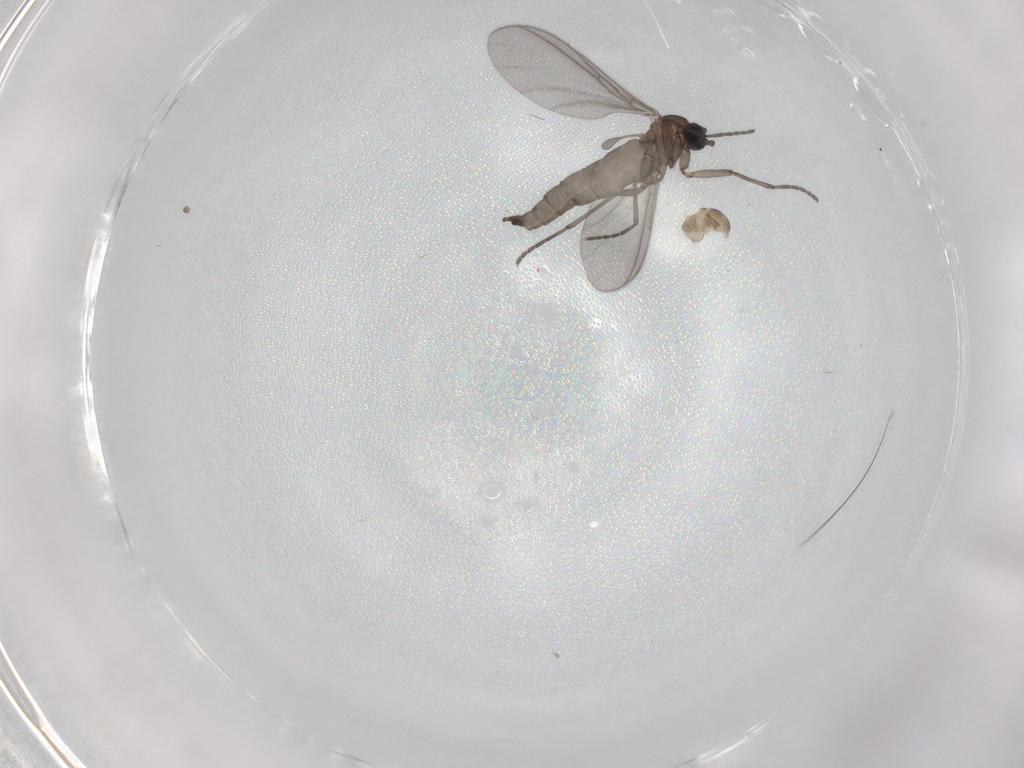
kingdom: Animalia
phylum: Arthropoda
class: Insecta
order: Diptera
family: Sciaridae
